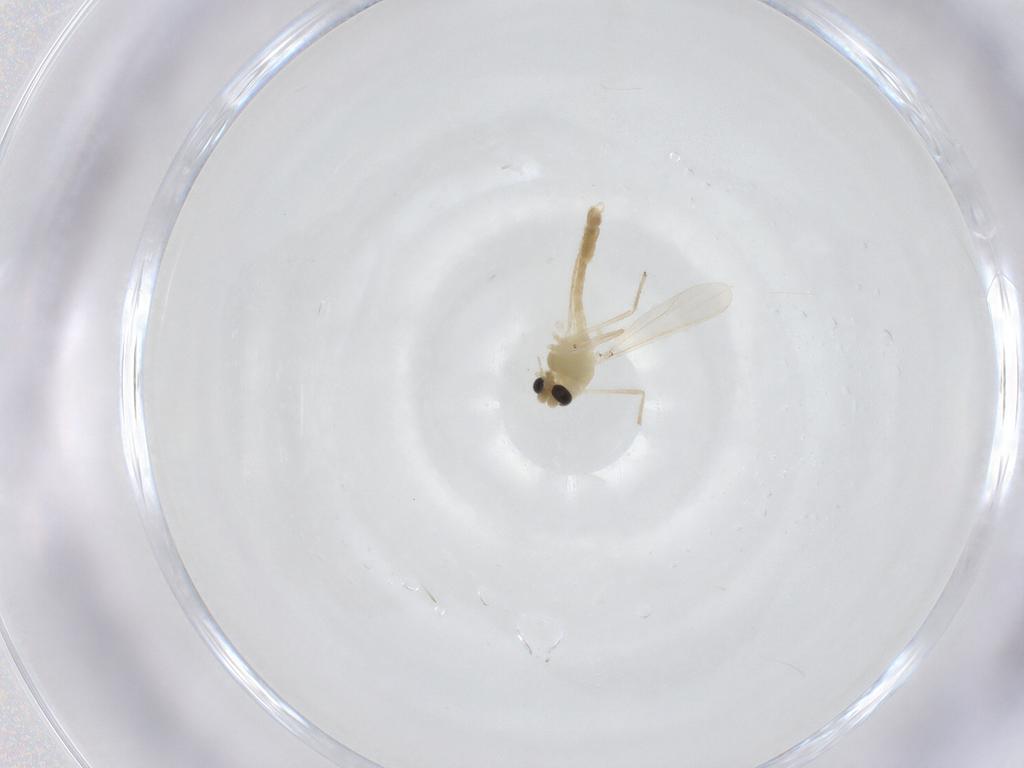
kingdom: Animalia
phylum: Arthropoda
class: Insecta
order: Diptera
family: Chironomidae
